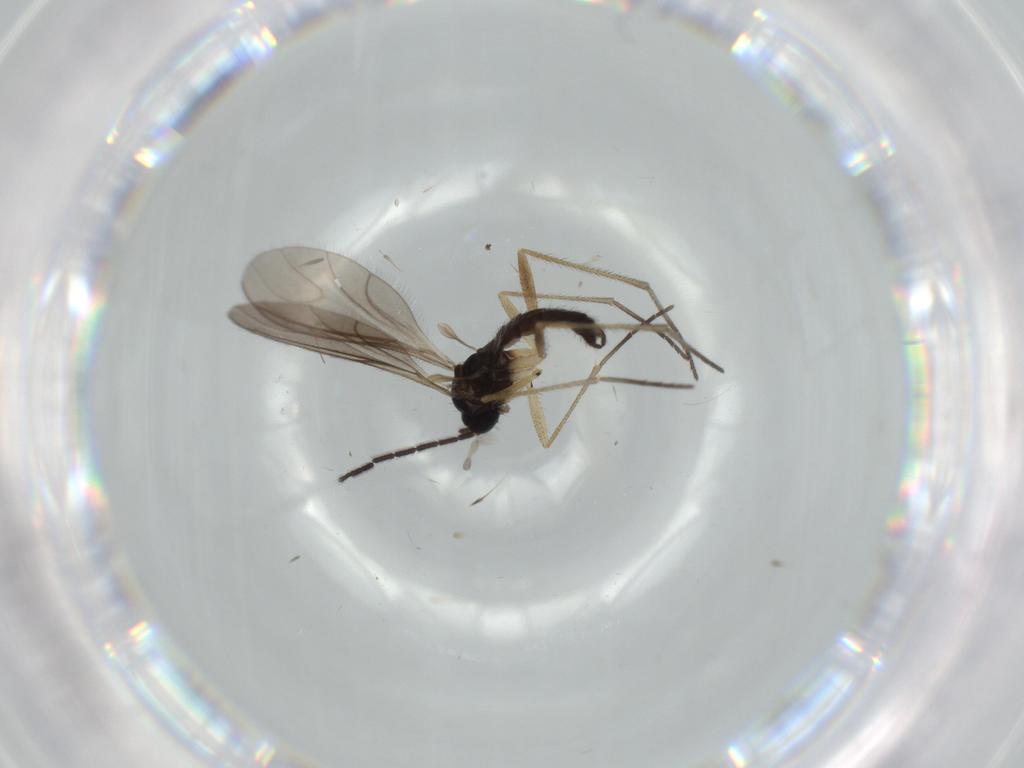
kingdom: Animalia
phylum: Arthropoda
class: Insecta
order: Diptera
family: Sciaridae
